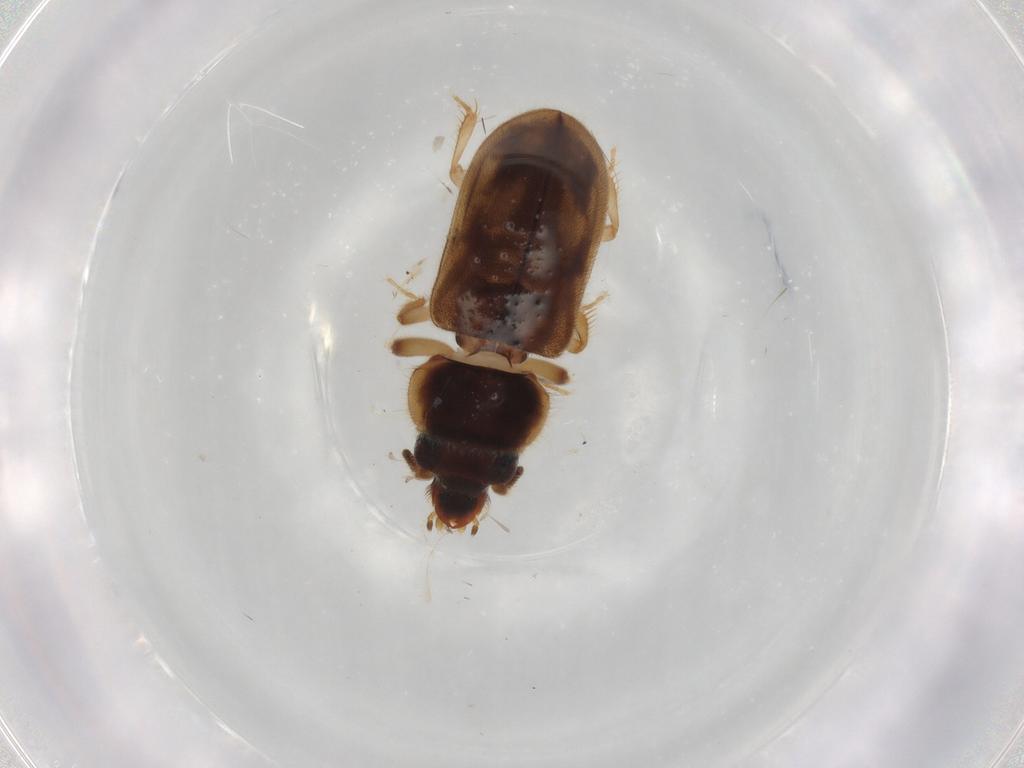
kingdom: Animalia
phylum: Arthropoda
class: Insecta
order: Coleoptera
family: Heteroceridae
